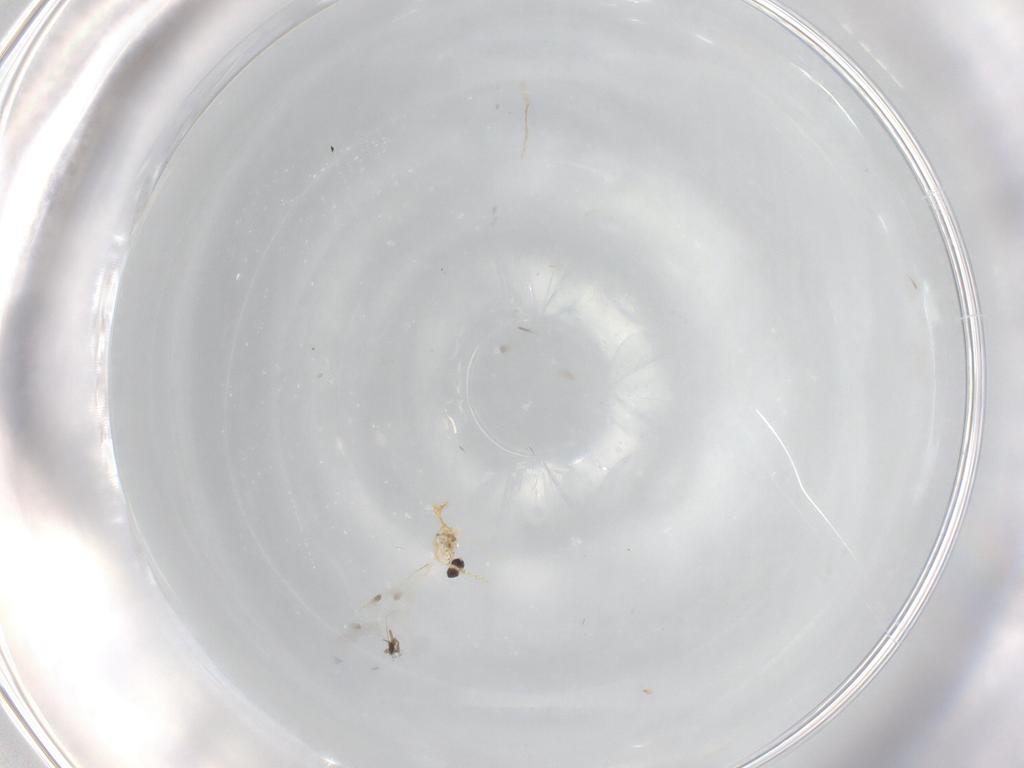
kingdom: Animalia
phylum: Arthropoda
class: Insecta
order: Diptera
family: Cecidomyiidae
